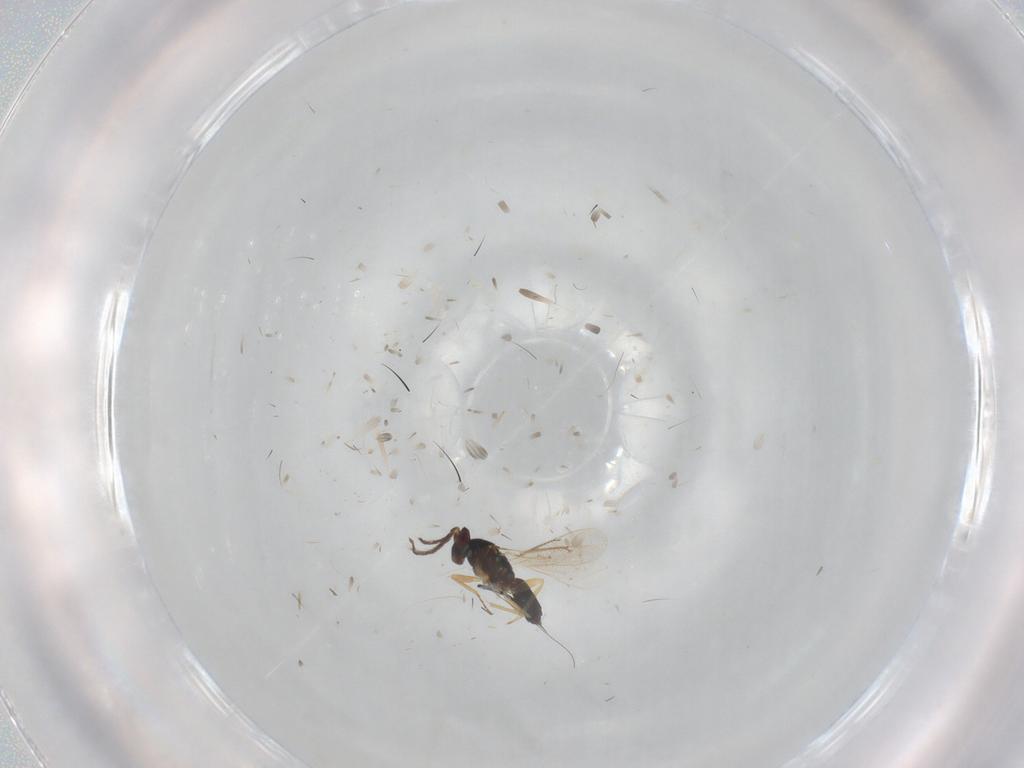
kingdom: Animalia
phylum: Arthropoda
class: Insecta
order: Hymenoptera
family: Eulophidae
